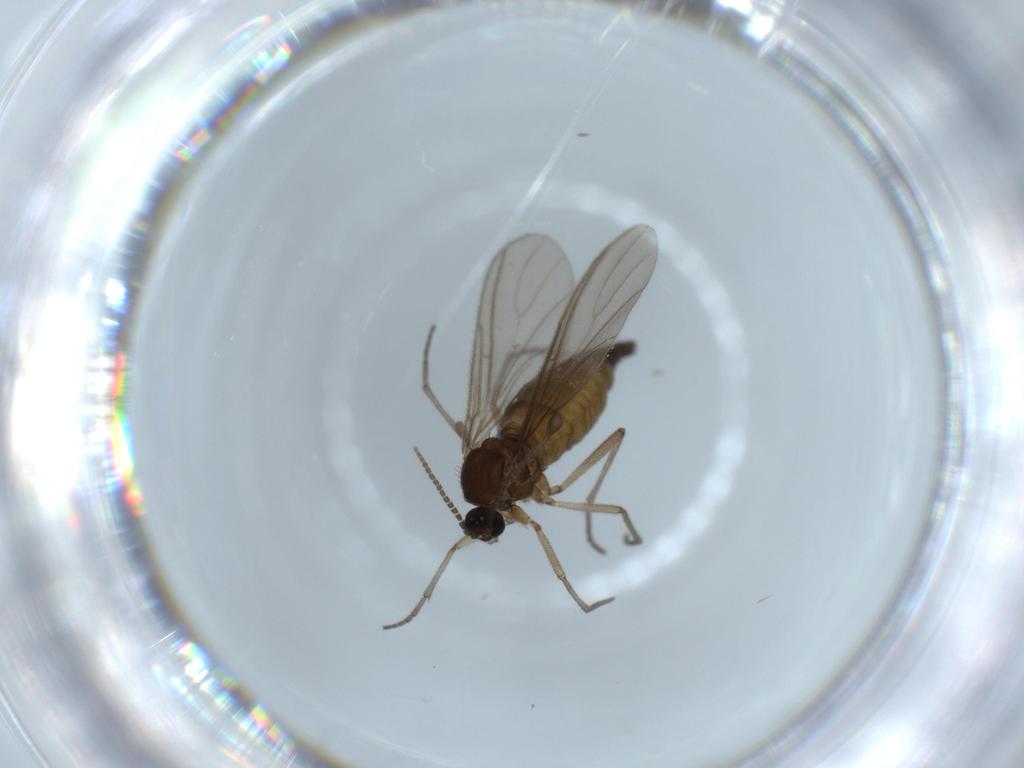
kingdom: Animalia
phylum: Arthropoda
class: Insecta
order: Diptera
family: Sciaridae
